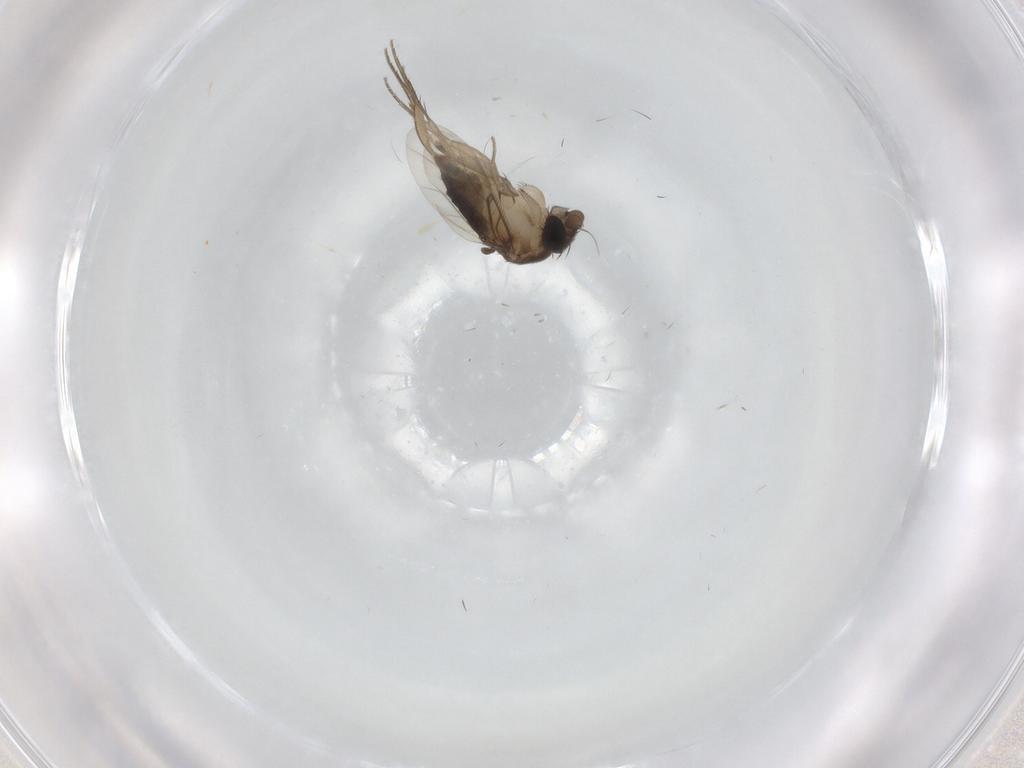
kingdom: Animalia
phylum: Arthropoda
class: Insecta
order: Diptera
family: Phoridae
